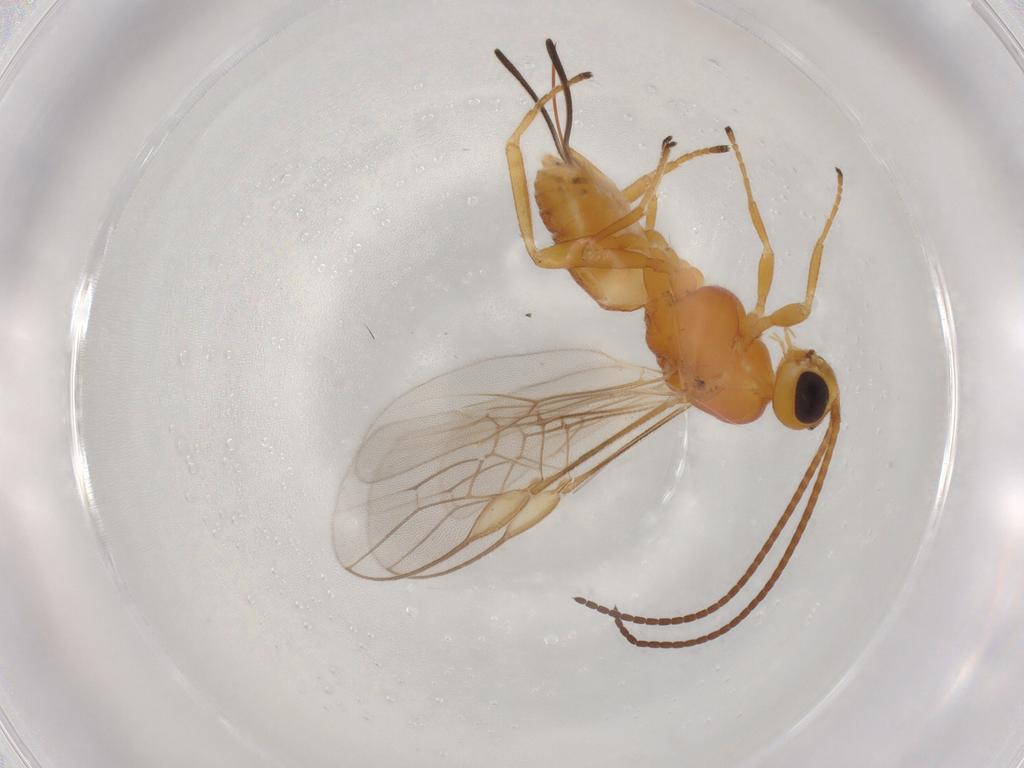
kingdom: Animalia
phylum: Arthropoda
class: Insecta
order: Hymenoptera
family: Braconidae
